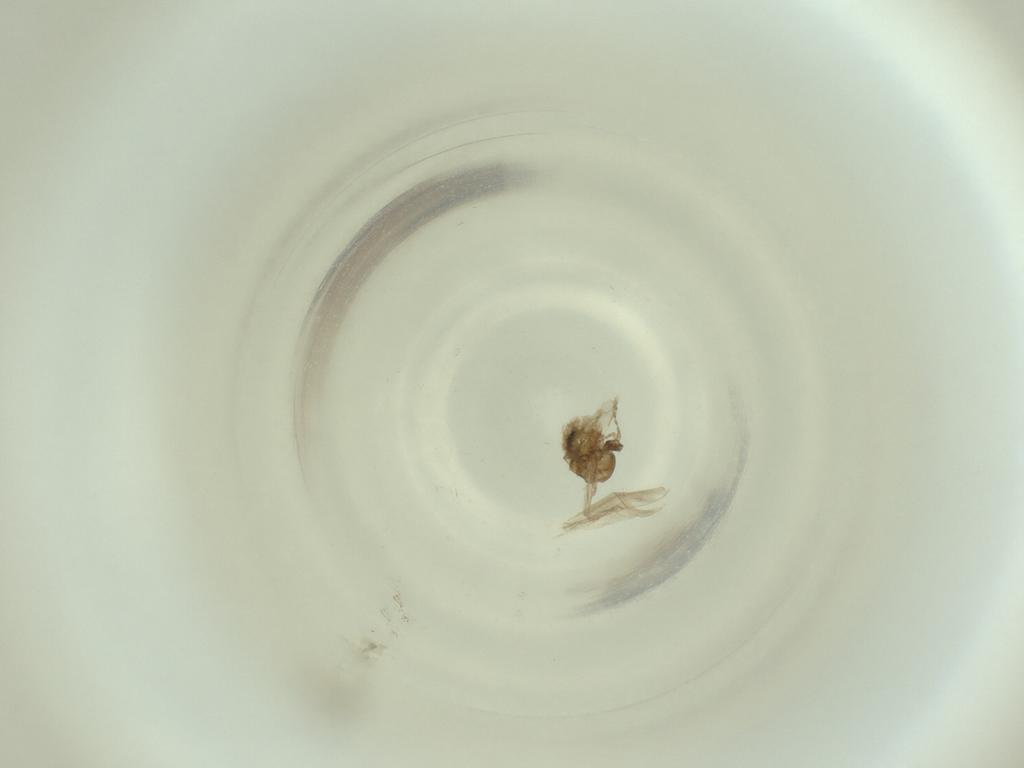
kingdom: Animalia
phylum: Arthropoda
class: Insecta
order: Diptera
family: Cecidomyiidae
